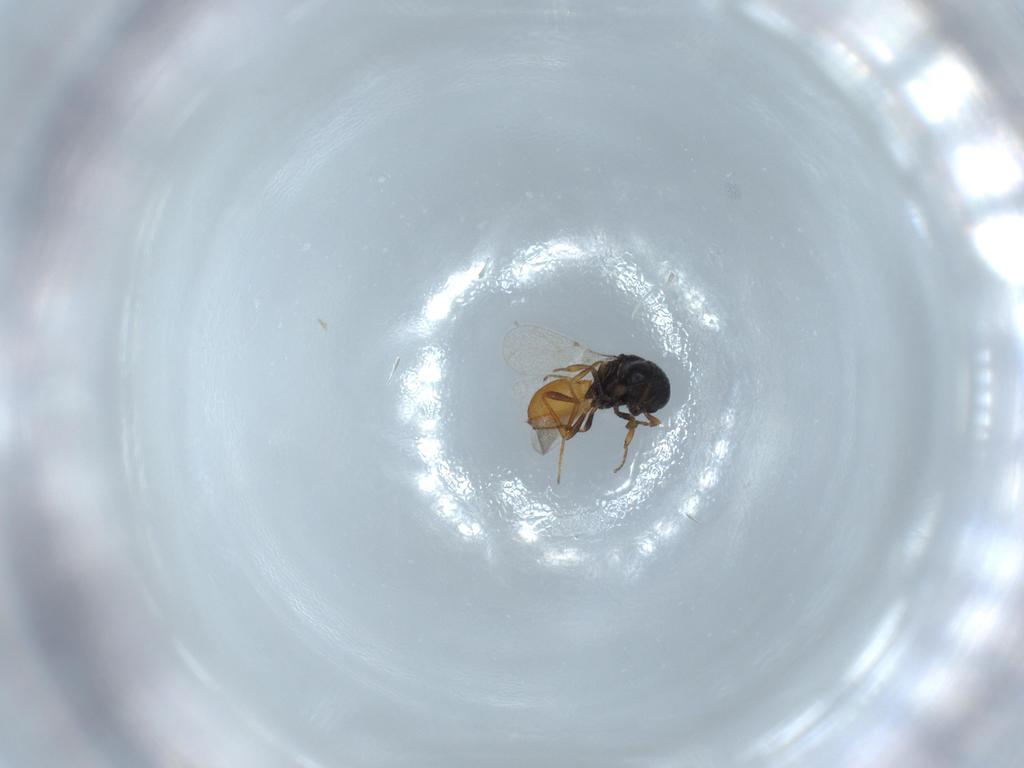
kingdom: Animalia
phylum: Arthropoda
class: Insecta
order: Hymenoptera
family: Scelionidae
